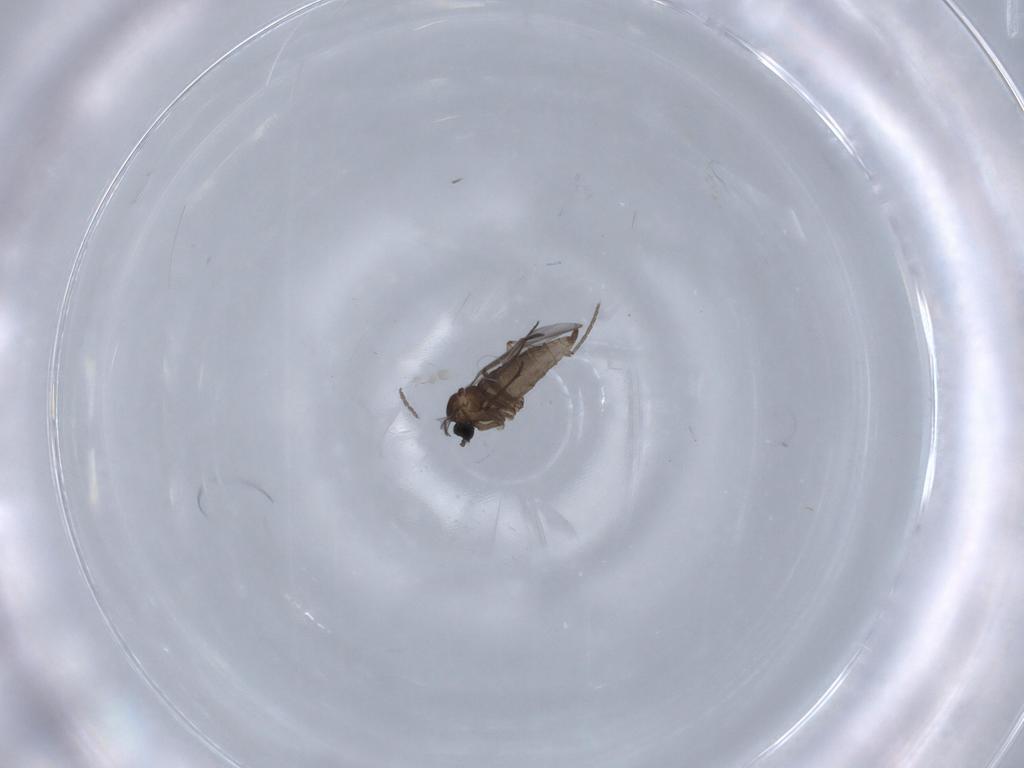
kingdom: Animalia
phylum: Arthropoda
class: Insecta
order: Diptera
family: Sciaridae
